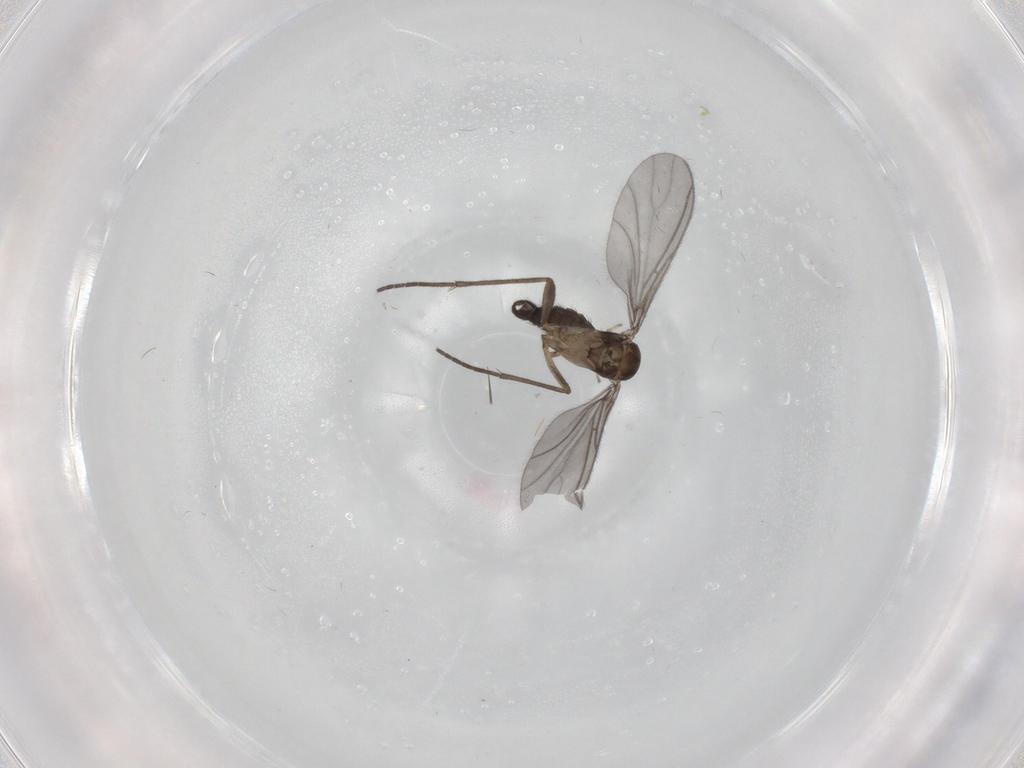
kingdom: Animalia
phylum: Arthropoda
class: Insecta
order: Diptera
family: Sciaridae
